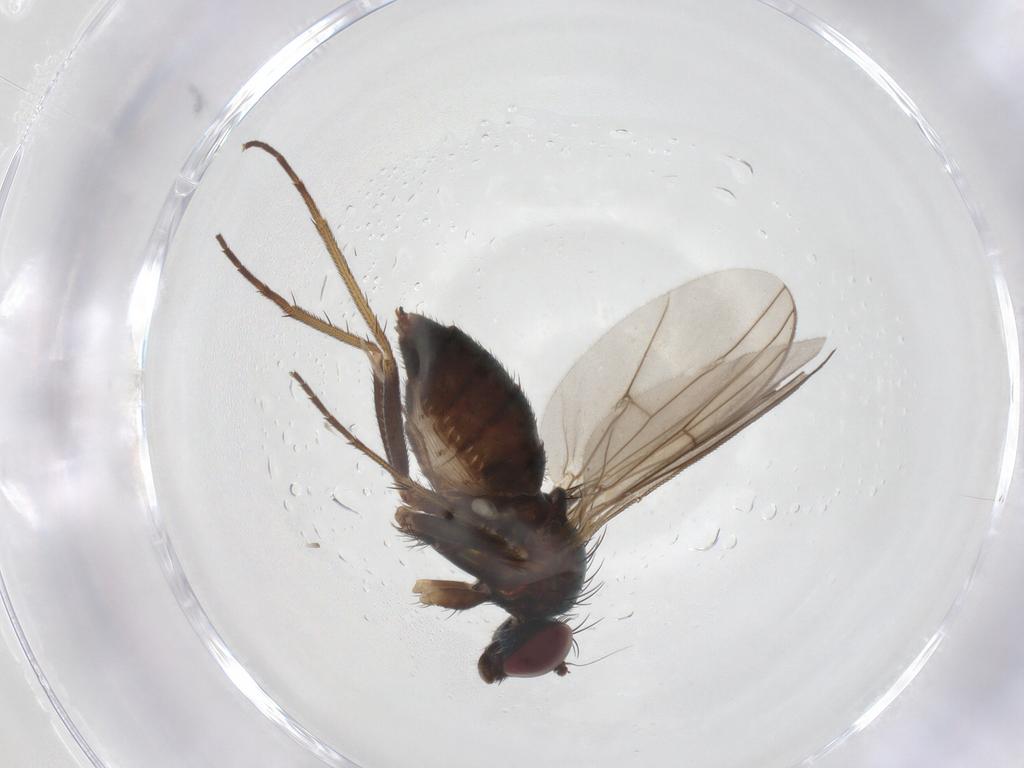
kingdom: Animalia
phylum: Arthropoda
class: Insecta
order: Diptera
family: Dolichopodidae
